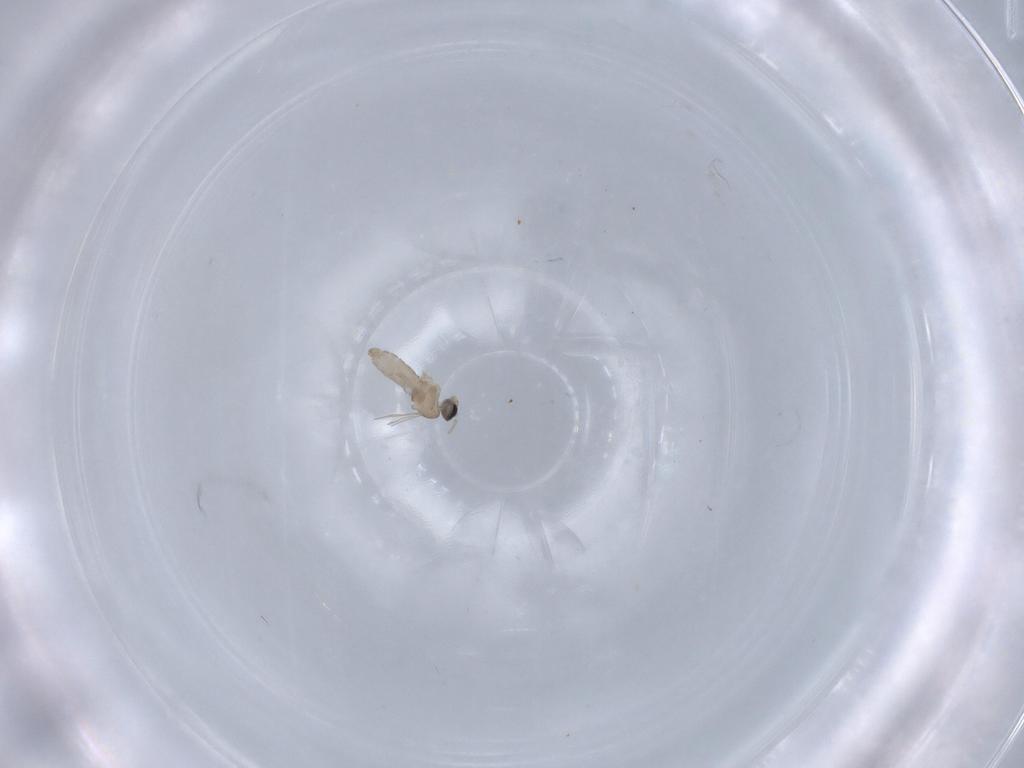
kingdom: Animalia
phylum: Arthropoda
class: Insecta
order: Diptera
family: Cecidomyiidae
